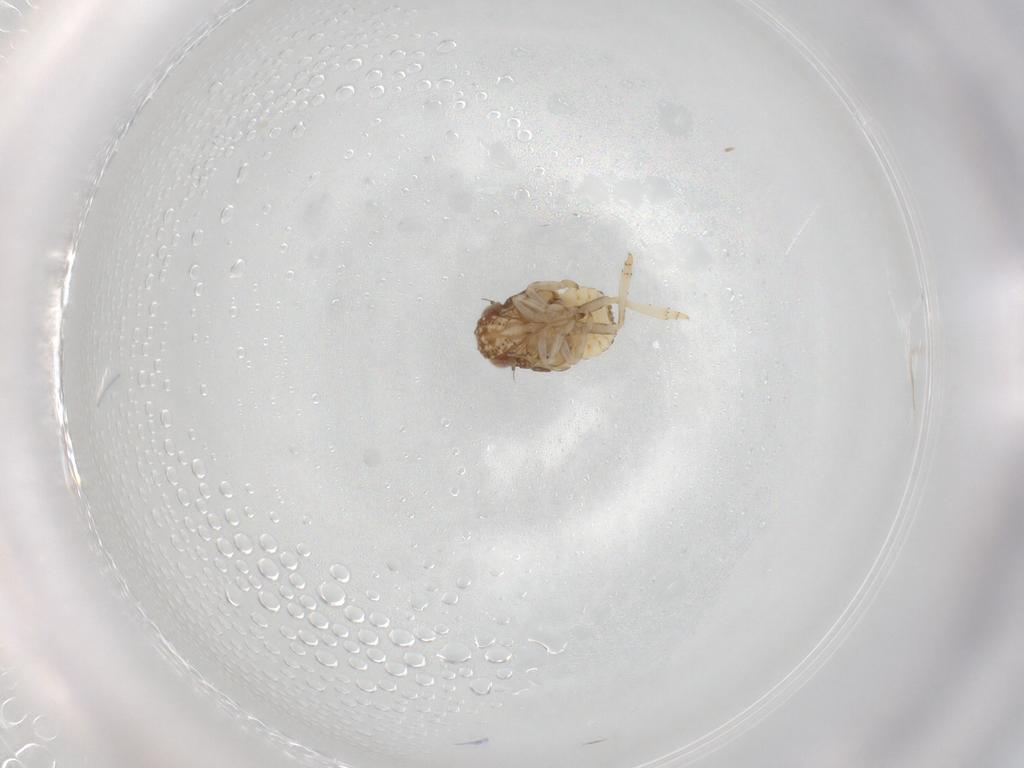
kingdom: Animalia
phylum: Arthropoda
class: Insecta
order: Hemiptera
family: Acanaloniidae
